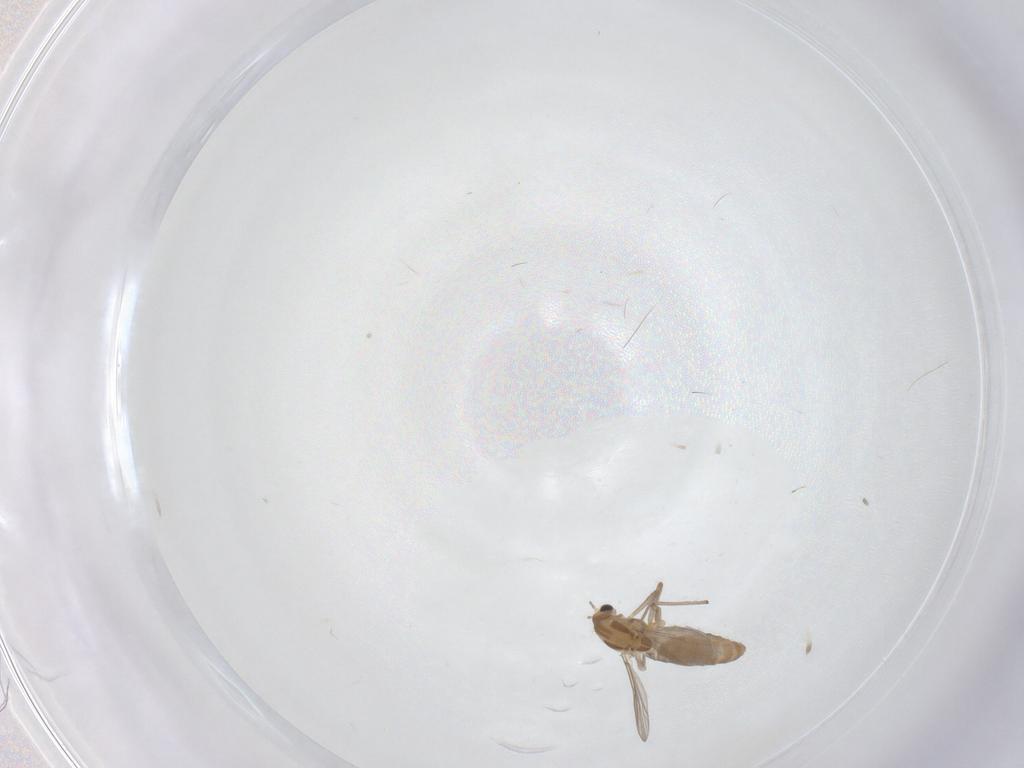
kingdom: Animalia
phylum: Arthropoda
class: Insecta
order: Diptera
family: Chironomidae
